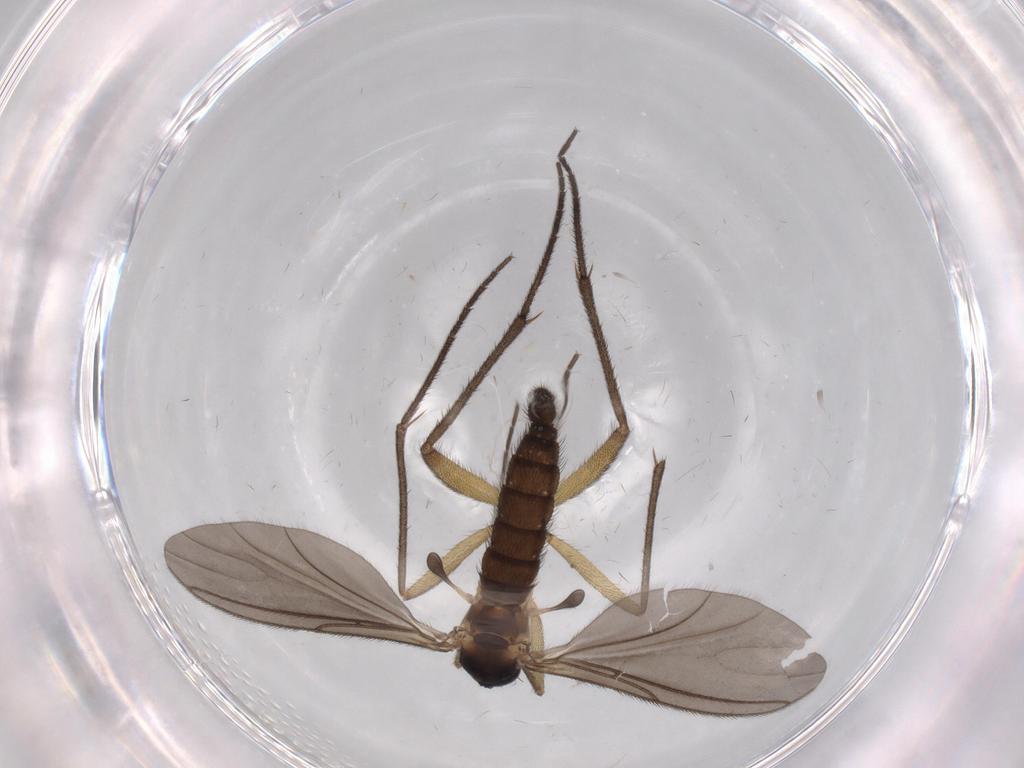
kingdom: Animalia
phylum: Arthropoda
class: Insecta
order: Diptera
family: Sciaridae
